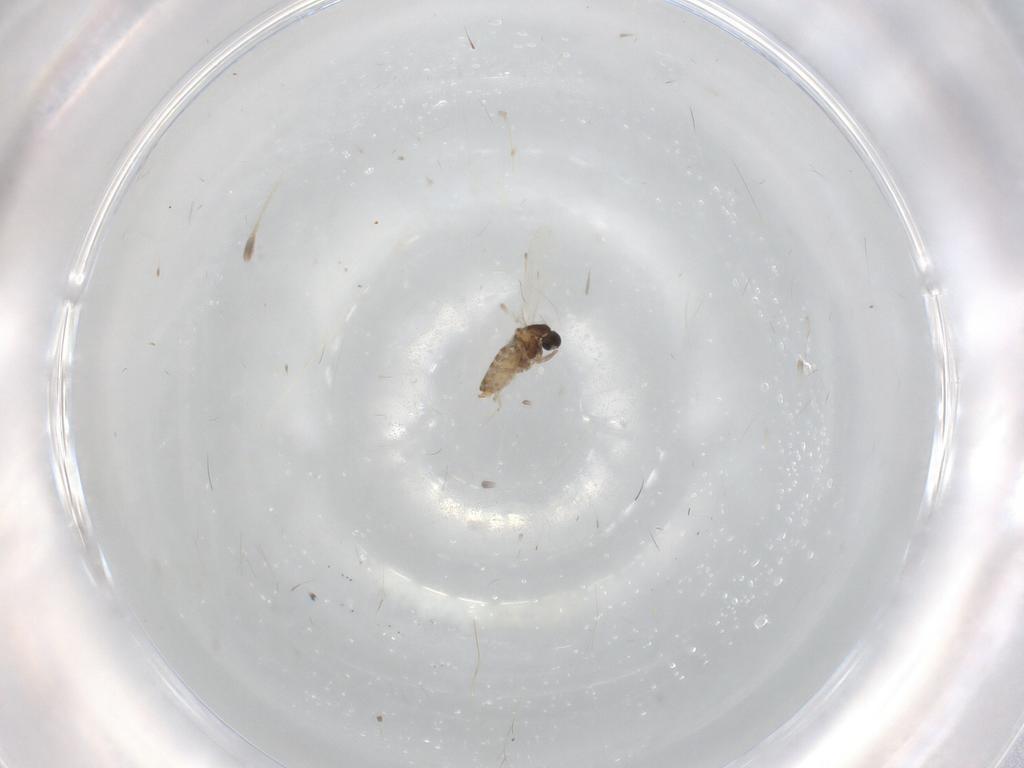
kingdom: Animalia
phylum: Arthropoda
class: Insecta
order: Diptera
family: Cecidomyiidae
